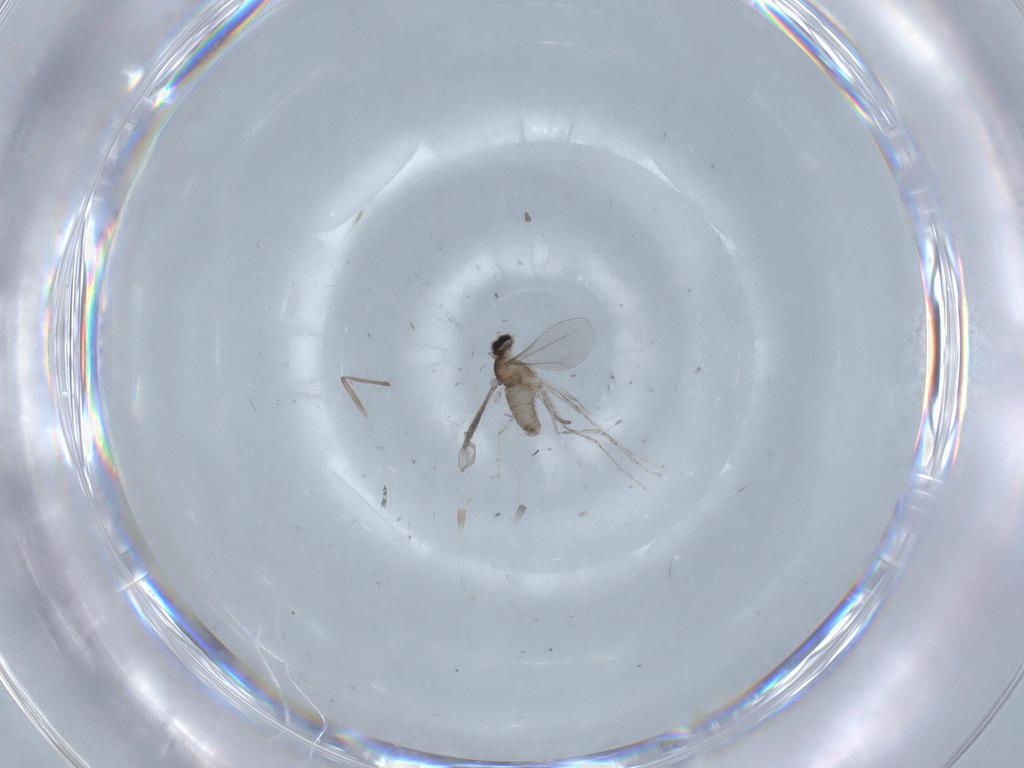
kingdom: Animalia
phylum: Arthropoda
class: Insecta
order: Diptera
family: Cecidomyiidae
